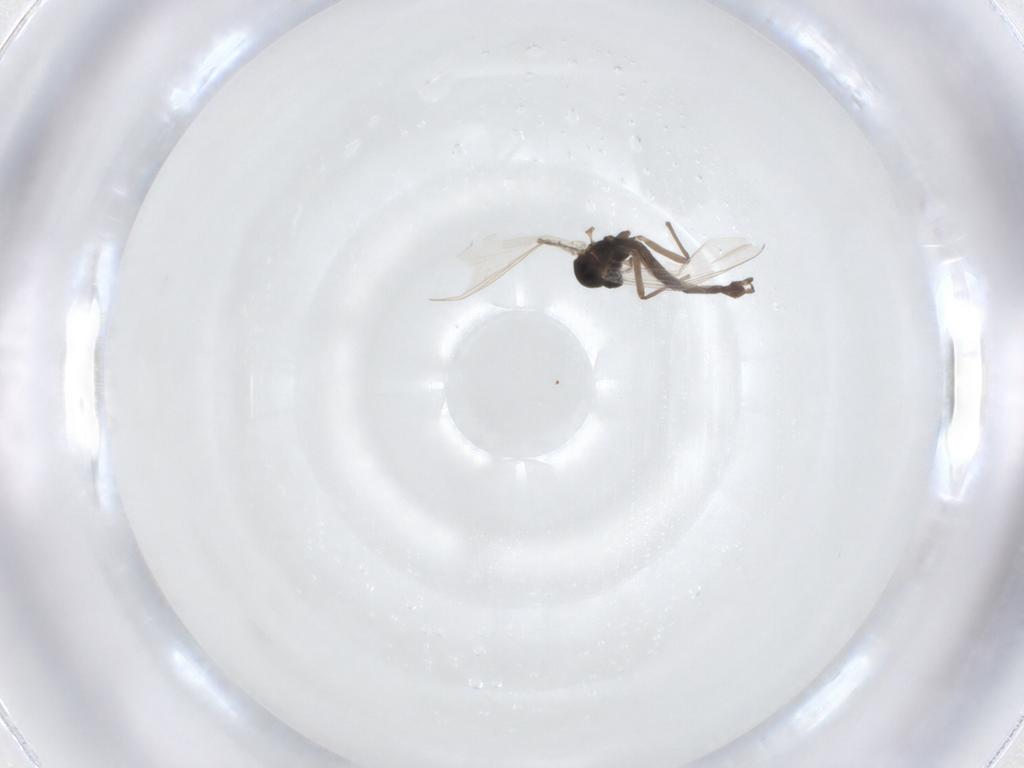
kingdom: Animalia
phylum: Arthropoda
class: Insecta
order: Diptera
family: Chironomidae
